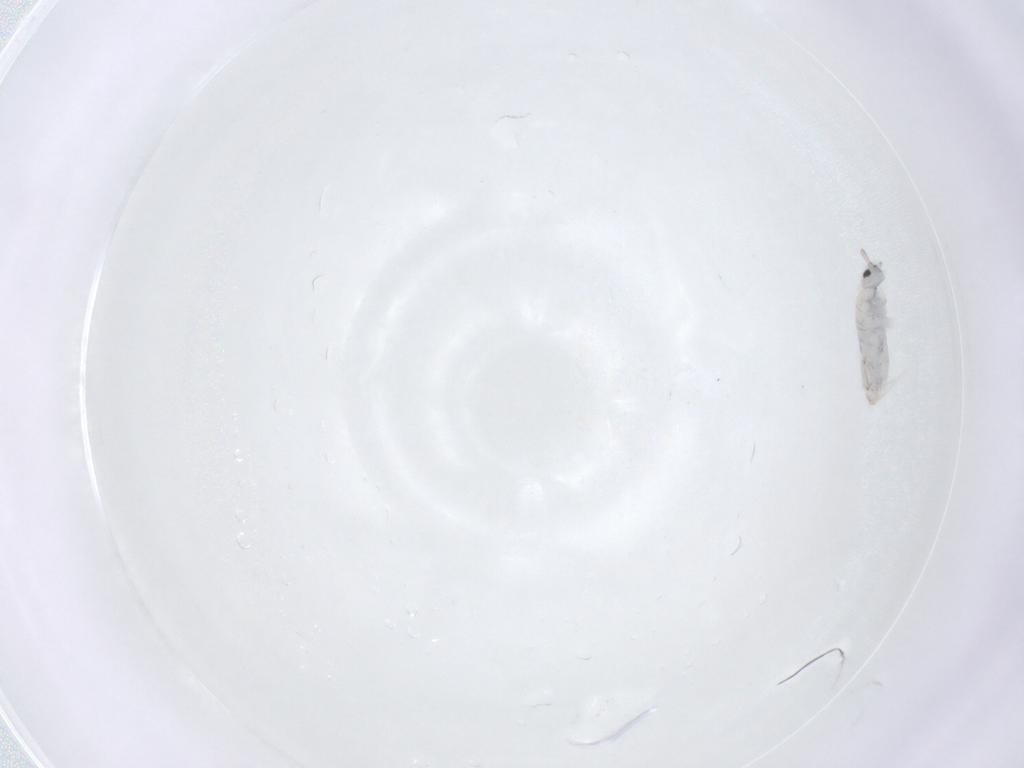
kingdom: Animalia
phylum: Arthropoda
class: Collembola
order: Entomobryomorpha
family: Entomobryidae
